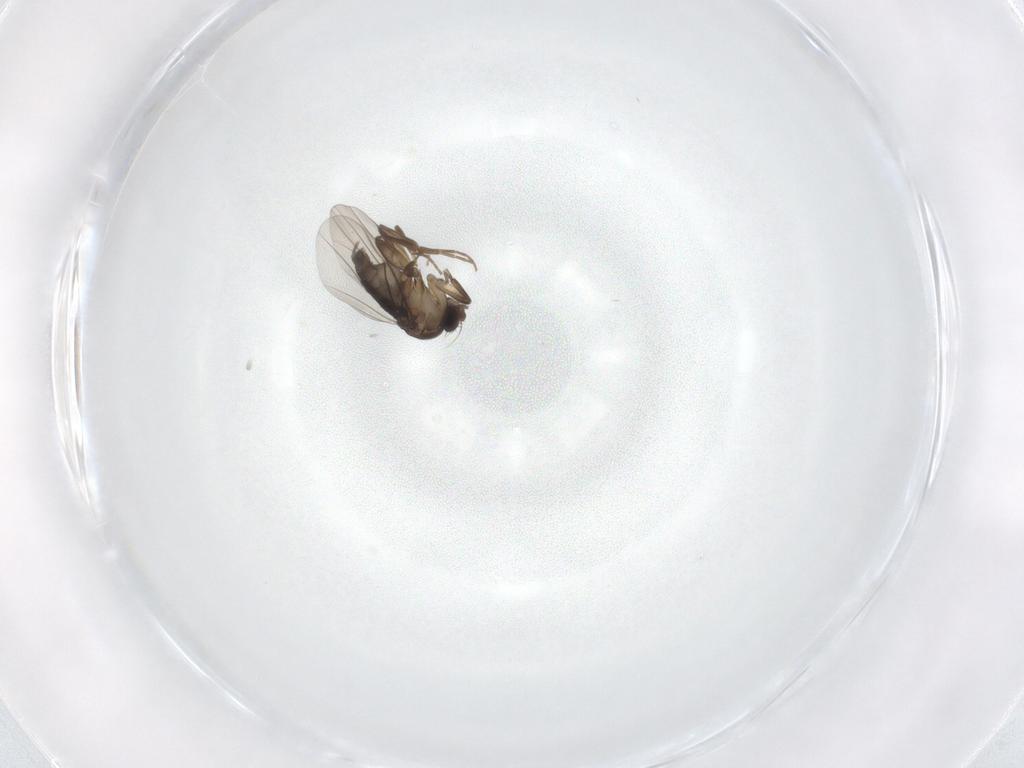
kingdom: Animalia
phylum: Arthropoda
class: Insecta
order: Diptera
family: Phoridae
